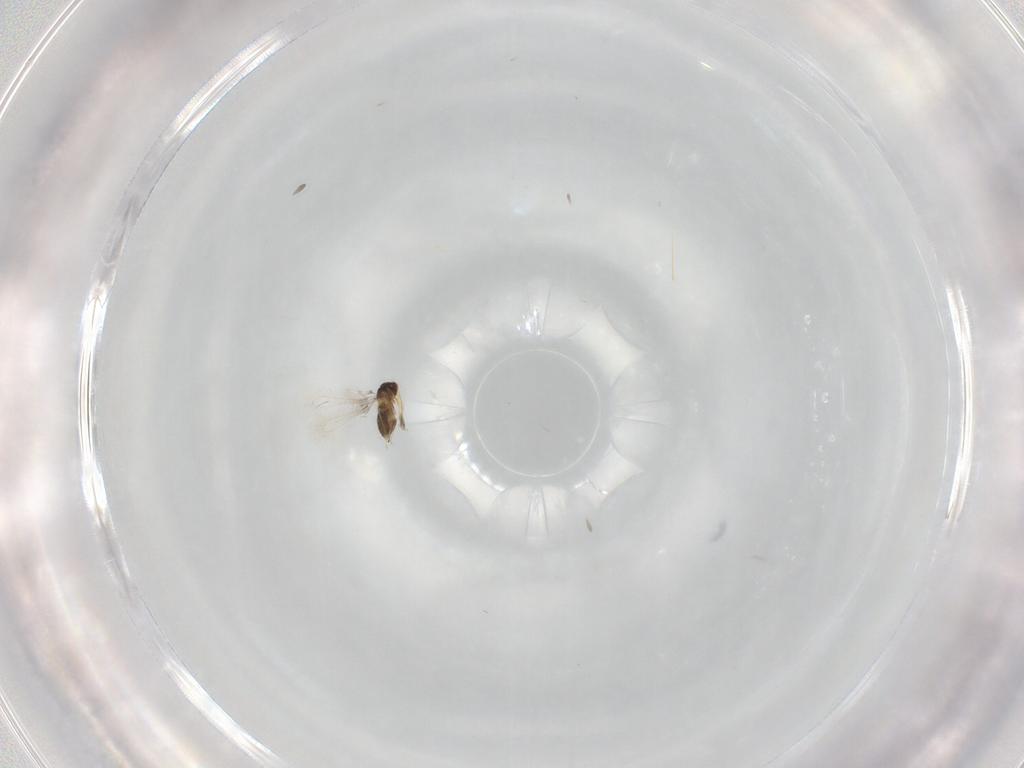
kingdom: Animalia
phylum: Arthropoda
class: Insecta
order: Hymenoptera
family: Mymaridae
